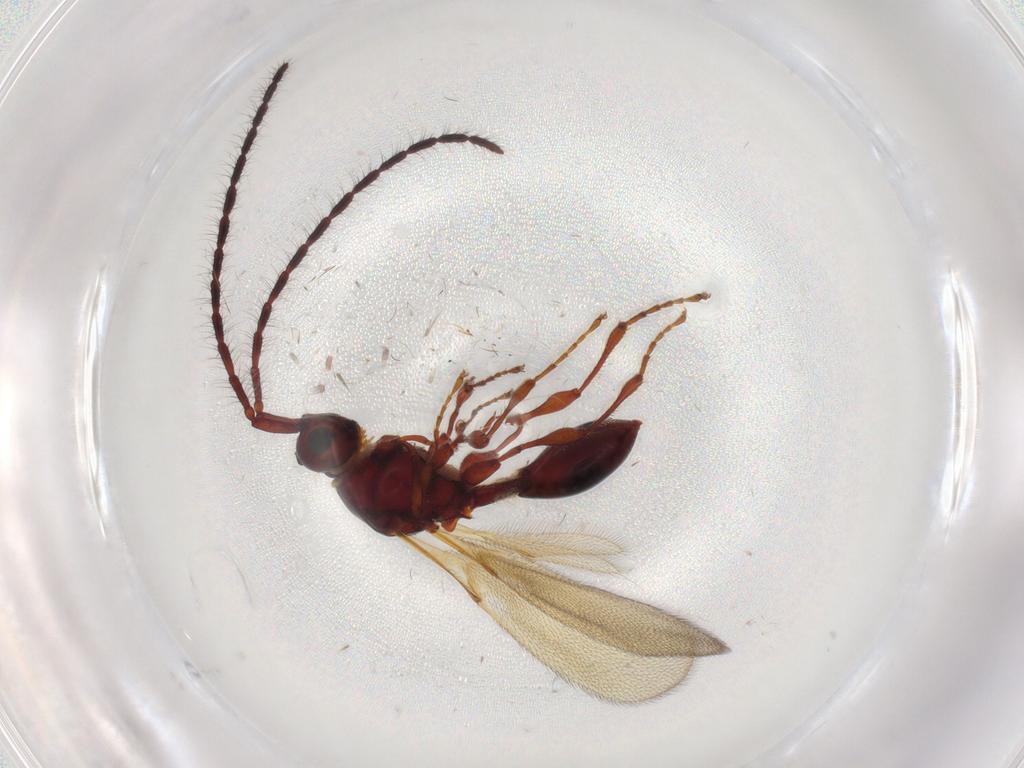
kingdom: Animalia
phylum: Arthropoda
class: Insecta
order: Hymenoptera
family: Diapriidae
